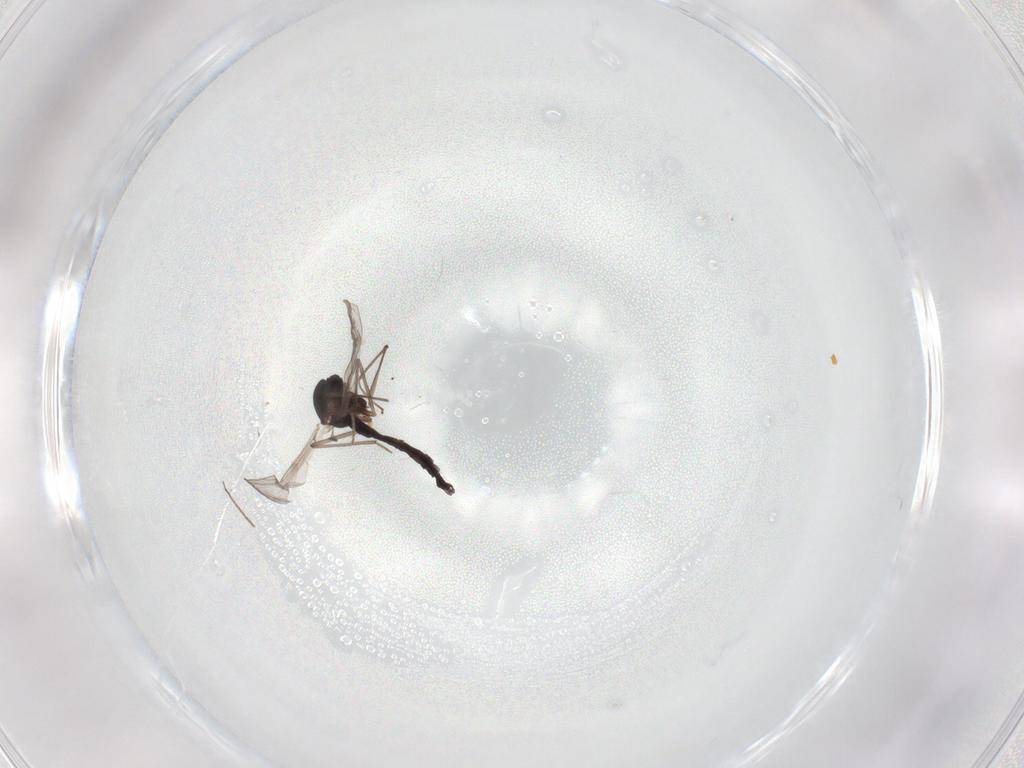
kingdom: Animalia
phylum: Arthropoda
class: Insecta
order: Diptera
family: Chironomidae
